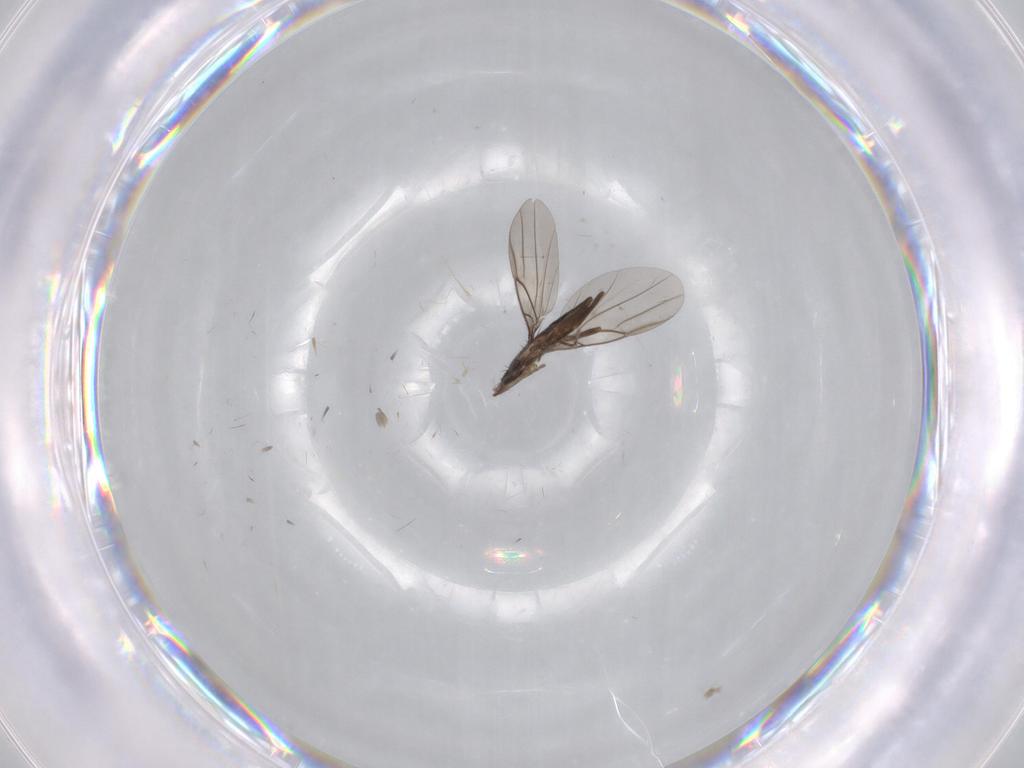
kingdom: Animalia
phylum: Arthropoda
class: Insecta
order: Diptera
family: Phoridae
